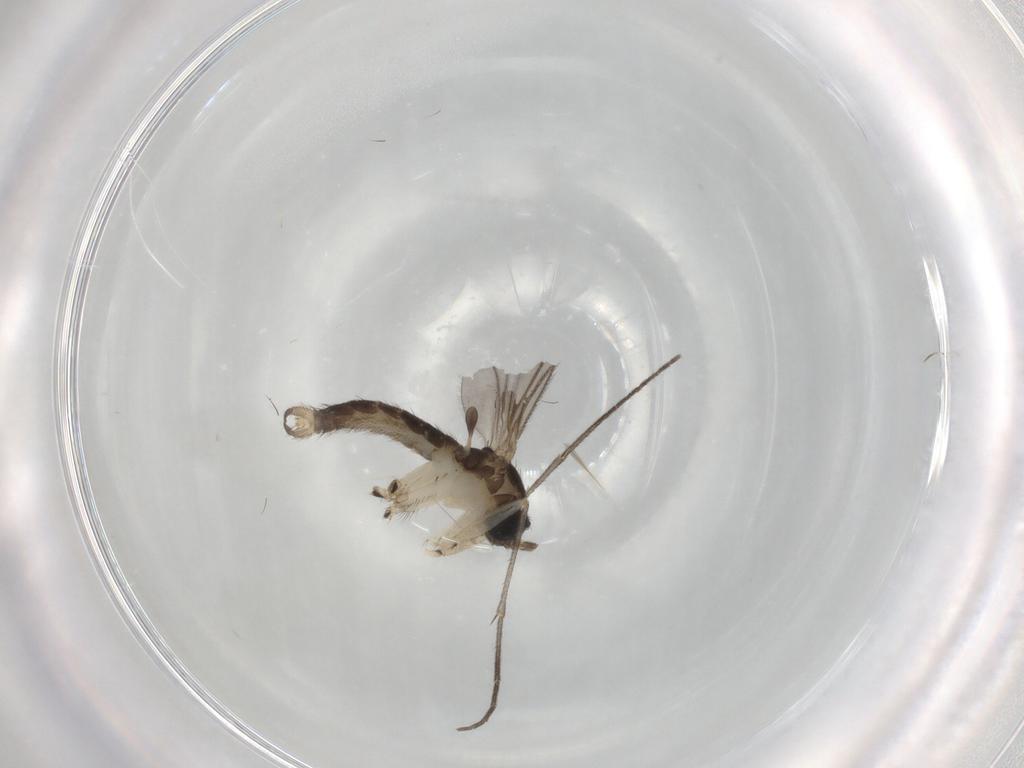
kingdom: Animalia
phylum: Arthropoda
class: Insecta
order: Diptera
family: Sciaridae
